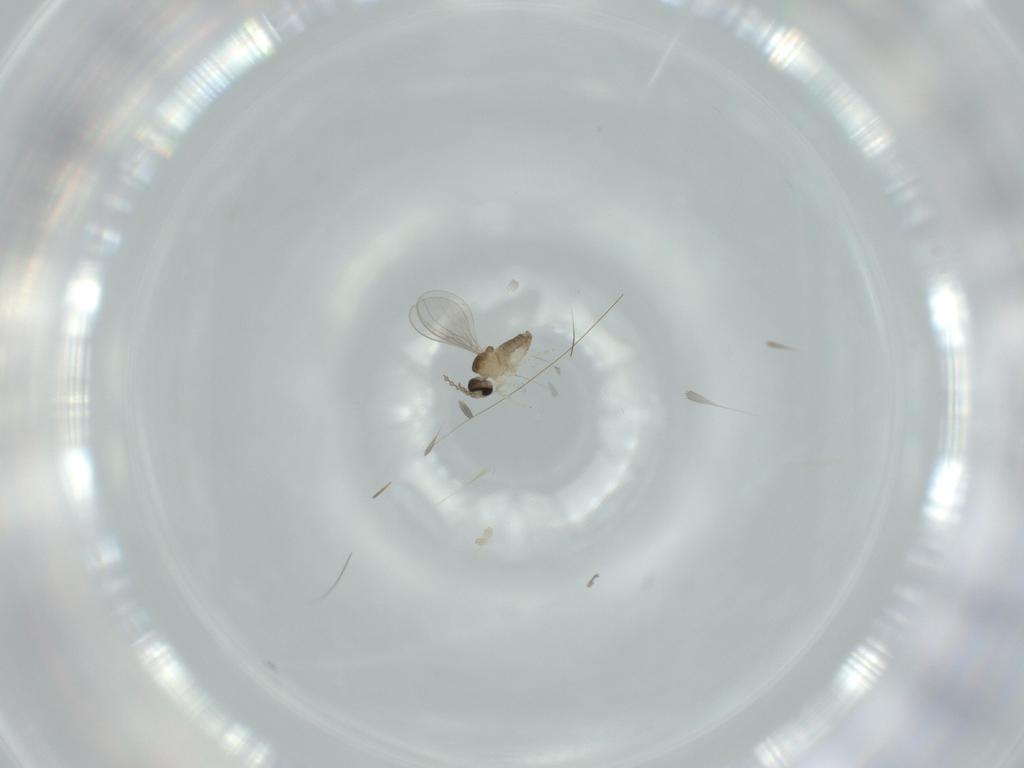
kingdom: Animalia
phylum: Arthropoda
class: Insecta
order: Diptera
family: Cecidomyiidae
